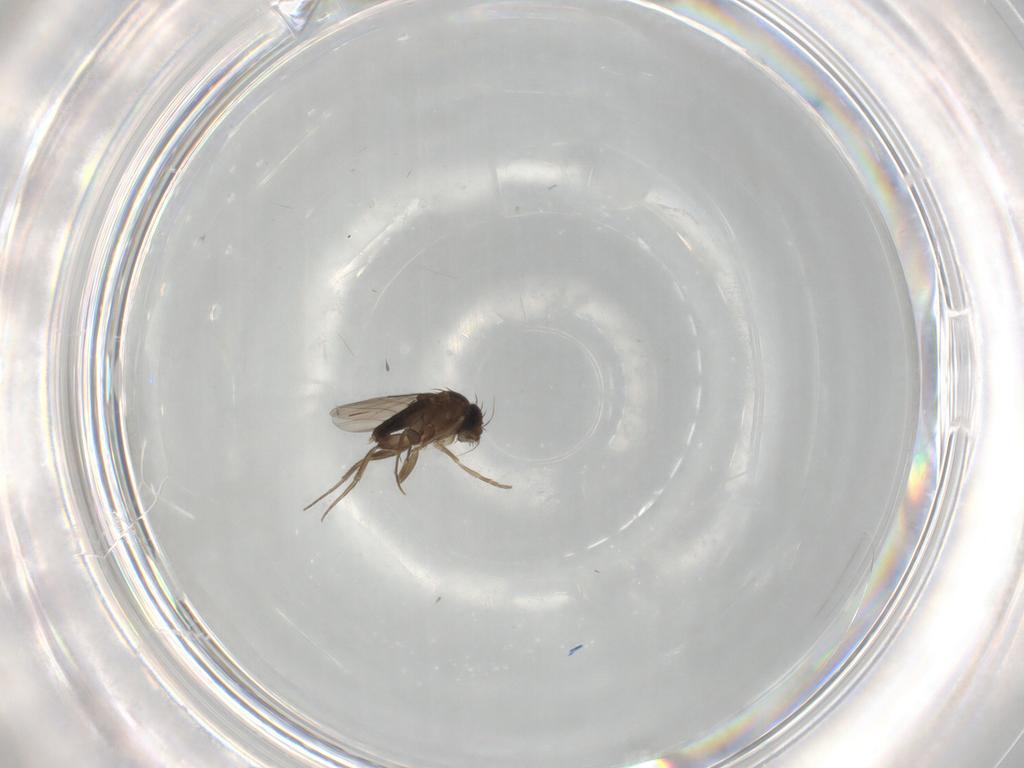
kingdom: Animalia
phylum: Arthropoda
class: Insecta
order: Diptera
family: Phoridae
